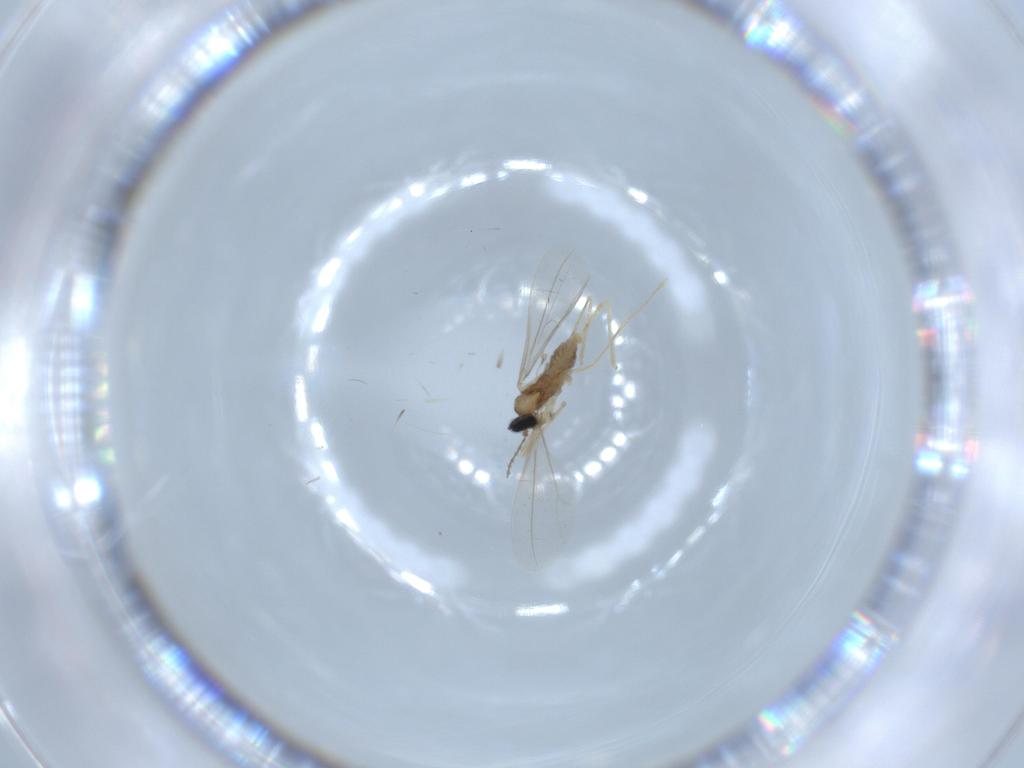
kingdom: Animalia
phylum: Arthropoda
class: Insecta
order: Diptera
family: Cecidomyiidae
